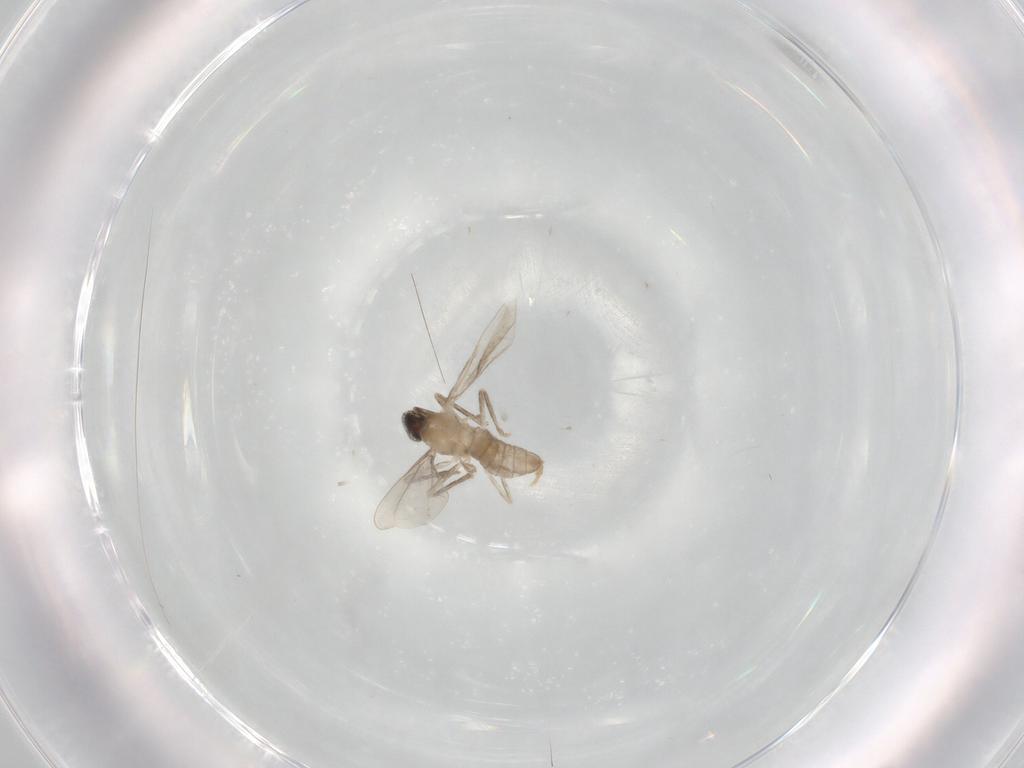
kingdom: Animalia
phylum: Arthropoda
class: Insecta
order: Diptera
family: Cecidomyiidae
